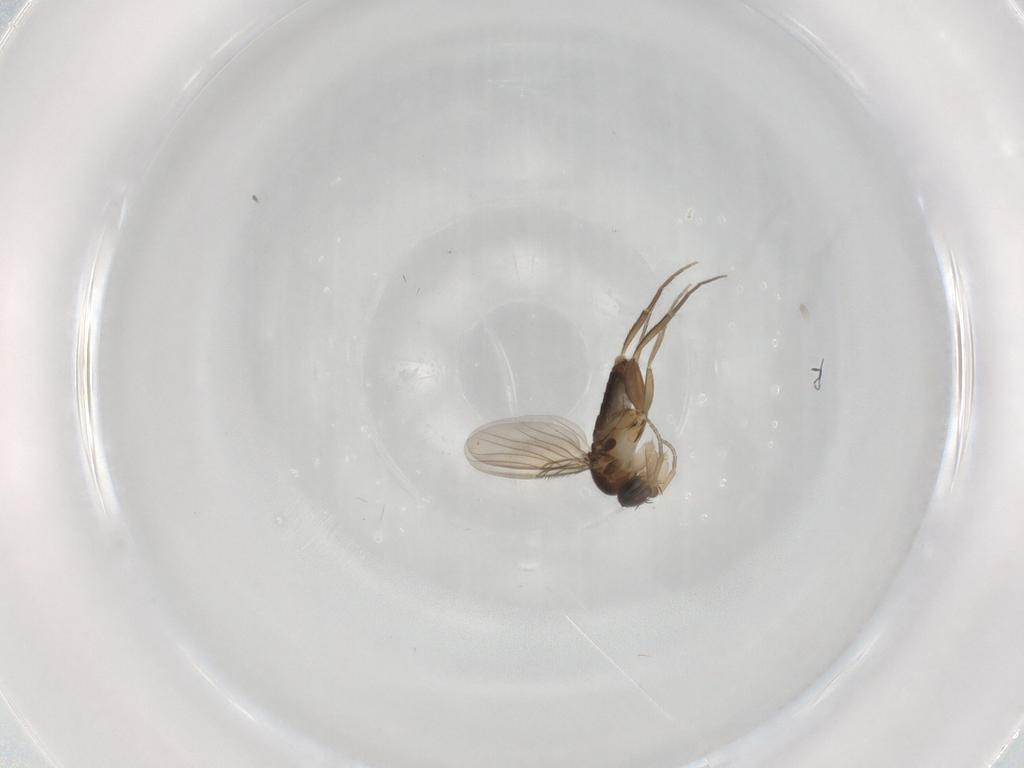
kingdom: Animalia
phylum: Arthropoda
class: Insecta
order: Diptera
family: Phoridae
